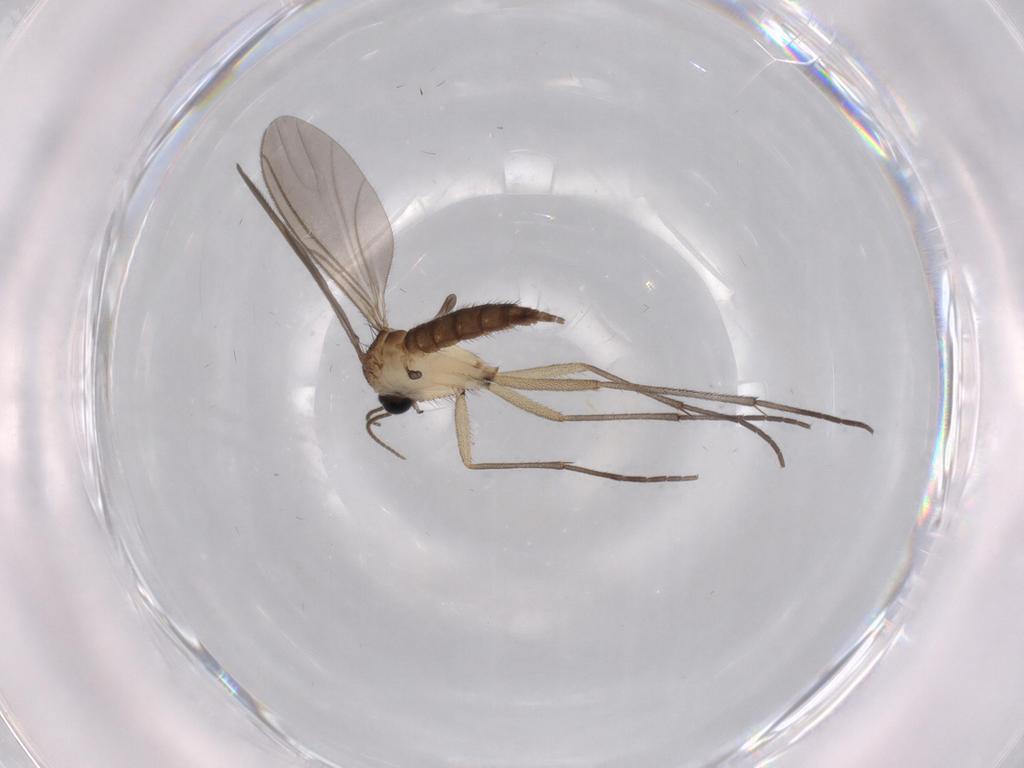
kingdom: Animalia
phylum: Arthropoda
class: Insecta
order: Diptera
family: Sciaridae
